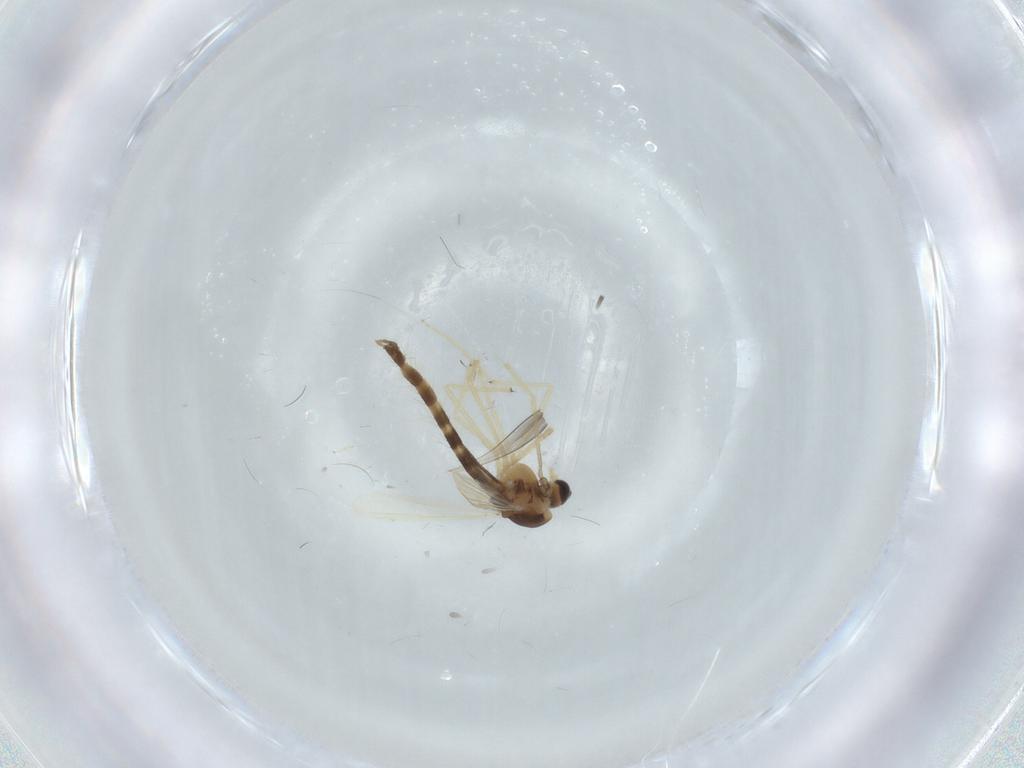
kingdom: Animalia
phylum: Arthropoda
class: Insecta
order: Diptera
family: Chironomidae
